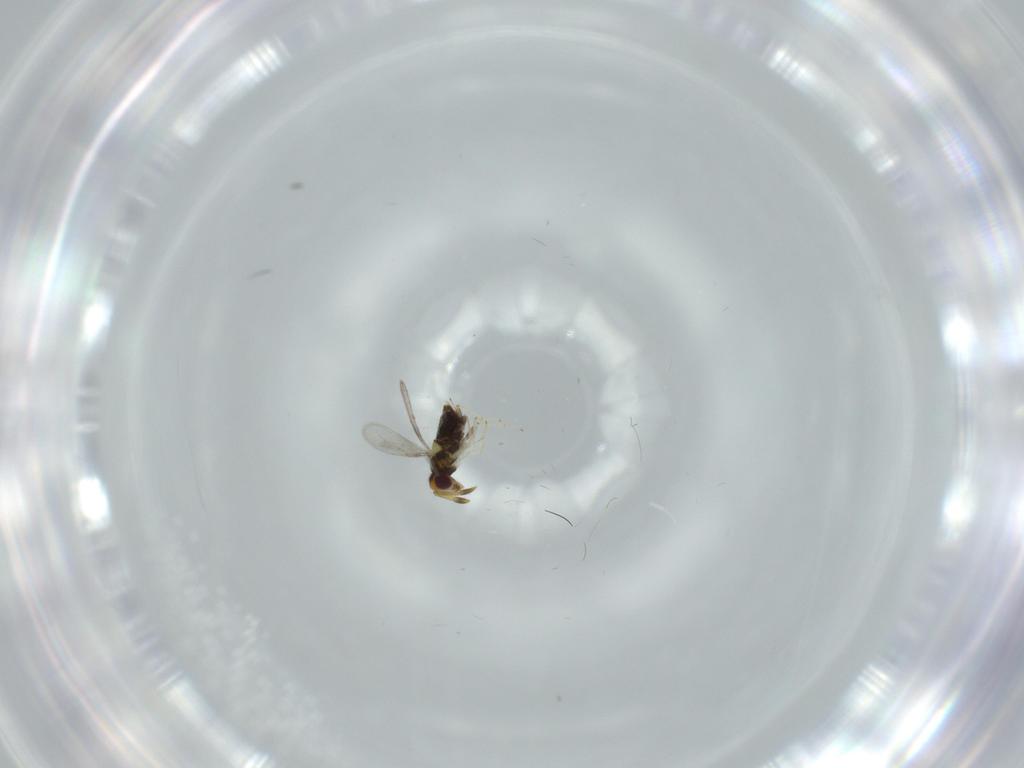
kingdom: Animalia
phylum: Arthropoda
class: Insecta
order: Hymenoptera
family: Aphelinidae
